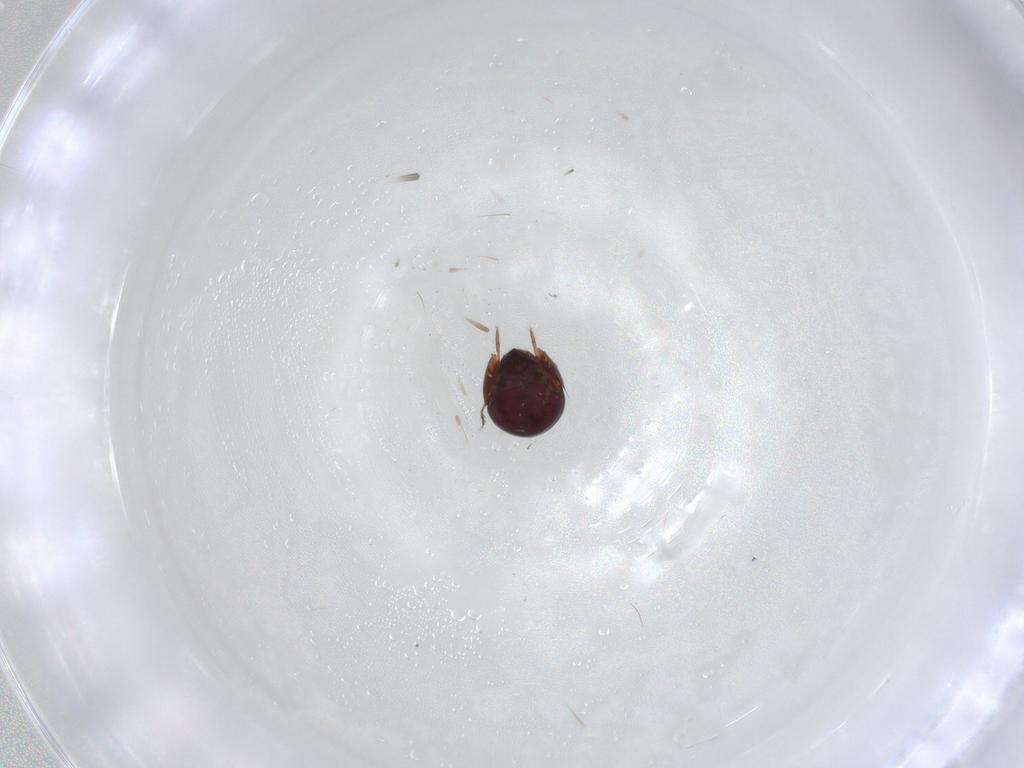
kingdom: Animalia
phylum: Arthropoda
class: Arachnida
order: Sarcoptiformes
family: Galumnidae
